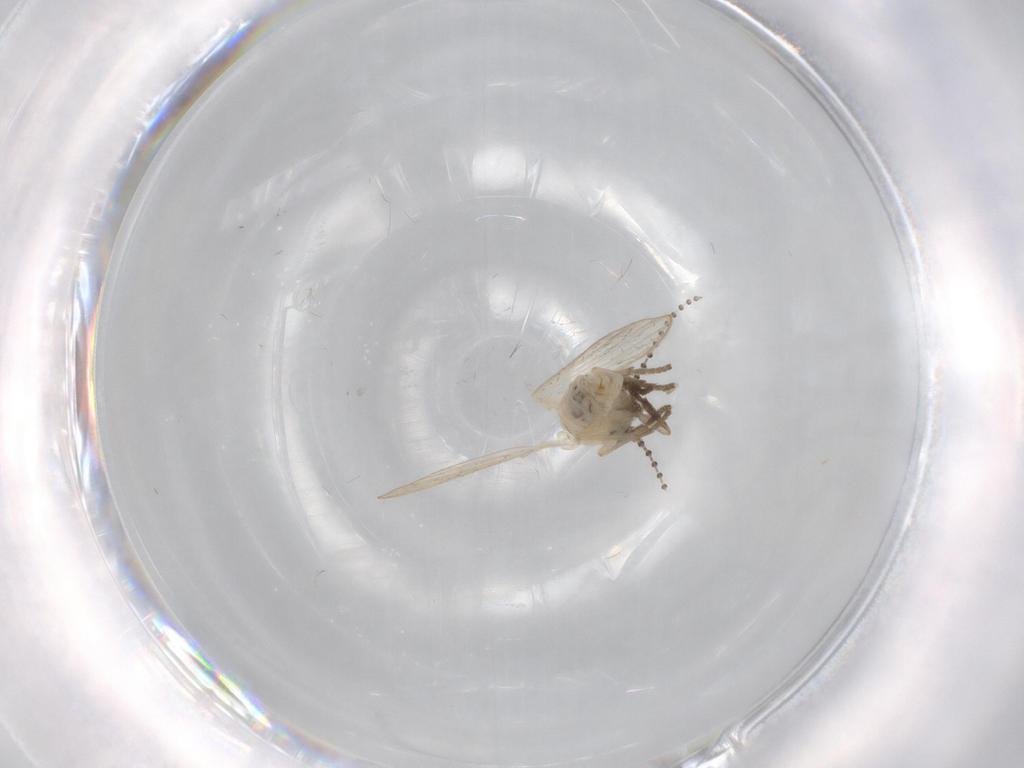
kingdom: Animalia
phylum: Arthropoda
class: Insecta
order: Diptera
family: Psychodidae
